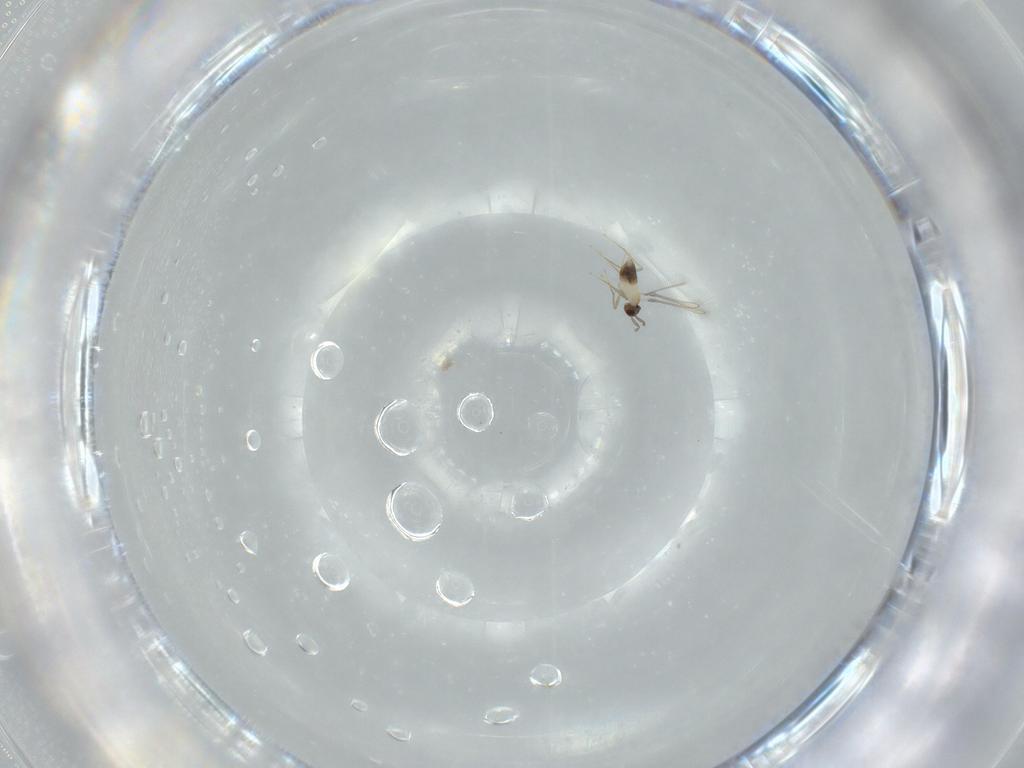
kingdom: Animalia
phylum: Arthropoda
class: Insecta
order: Hymenoptera
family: Mymaridae
